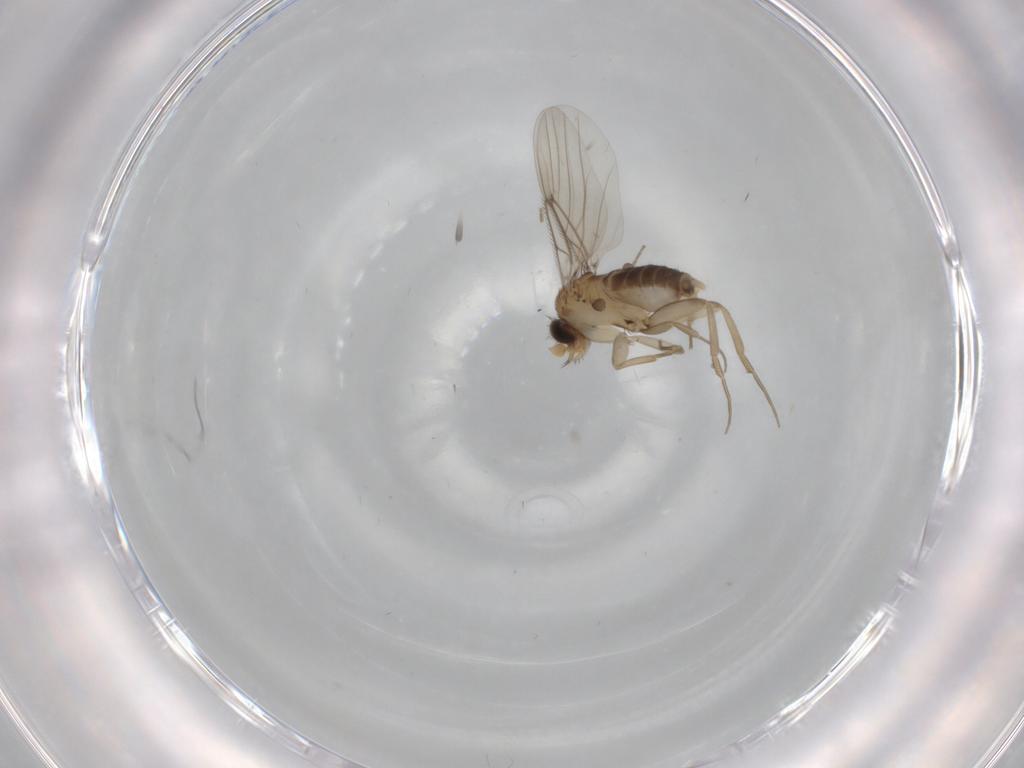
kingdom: Animalia
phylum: Arthropoda
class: Insecta
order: Diptera
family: Phoridae
